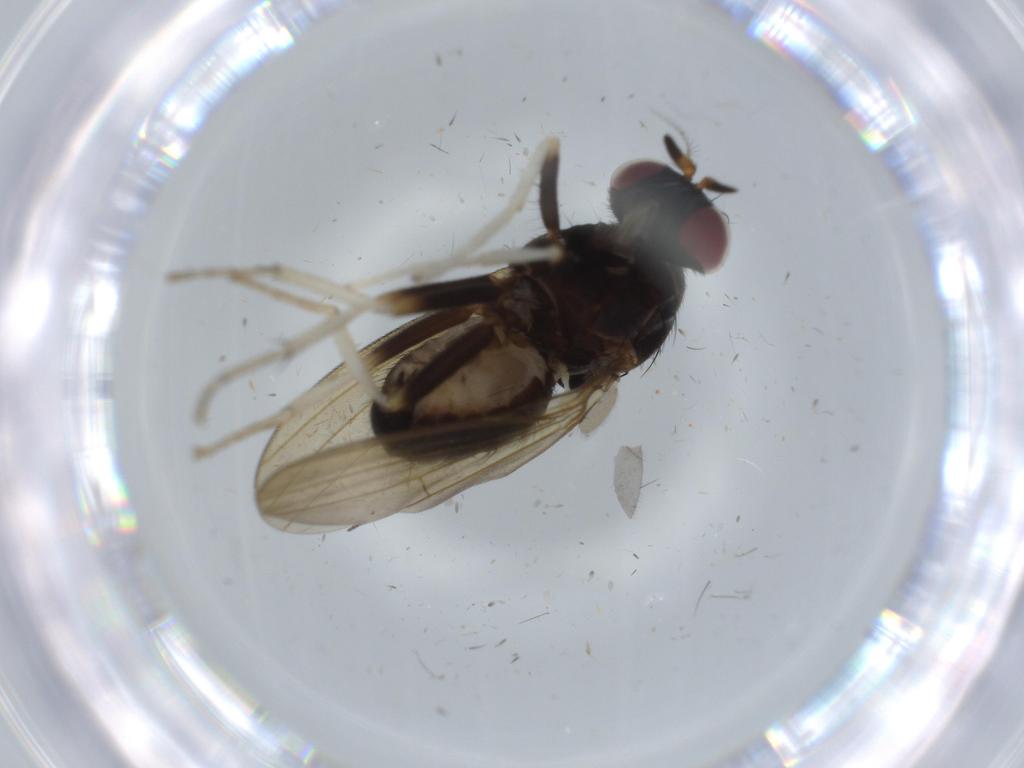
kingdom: Animalia
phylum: Arthropoda
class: Insecta
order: Diptera
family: Lauxaniidae
